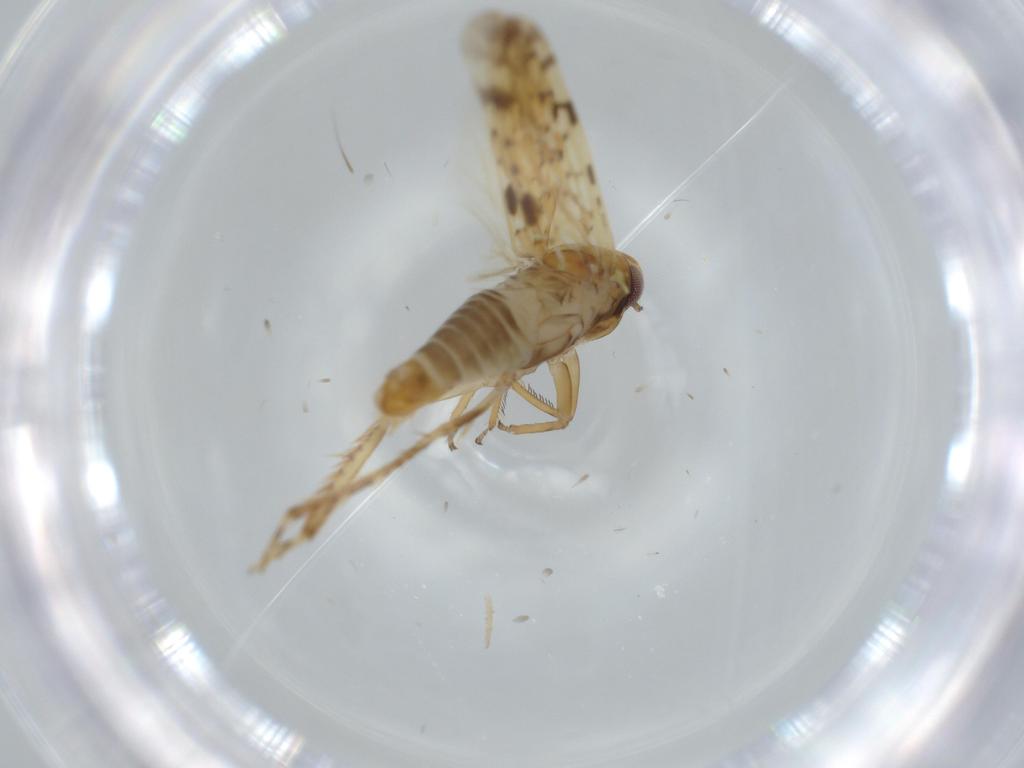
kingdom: Animalia
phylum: Arthropoda
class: Insecta
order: Hemiptera
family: Cicadellidae
